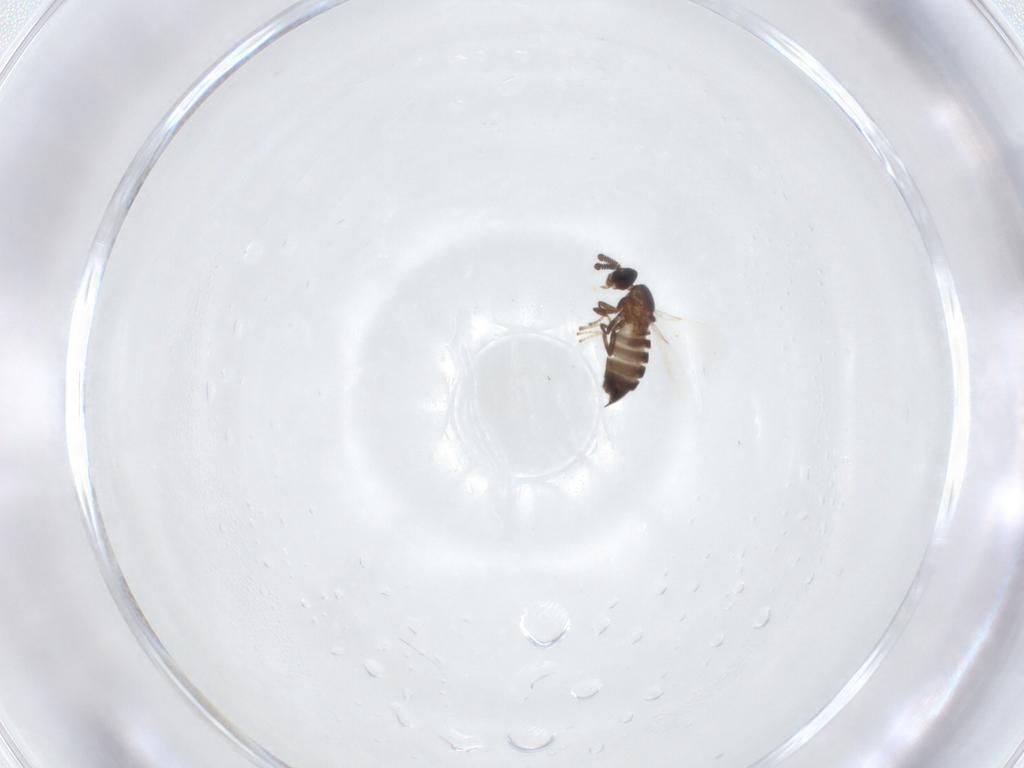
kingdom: Animalia
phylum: Arthropoda
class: Insecta
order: Diptera
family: Scatopsidae
